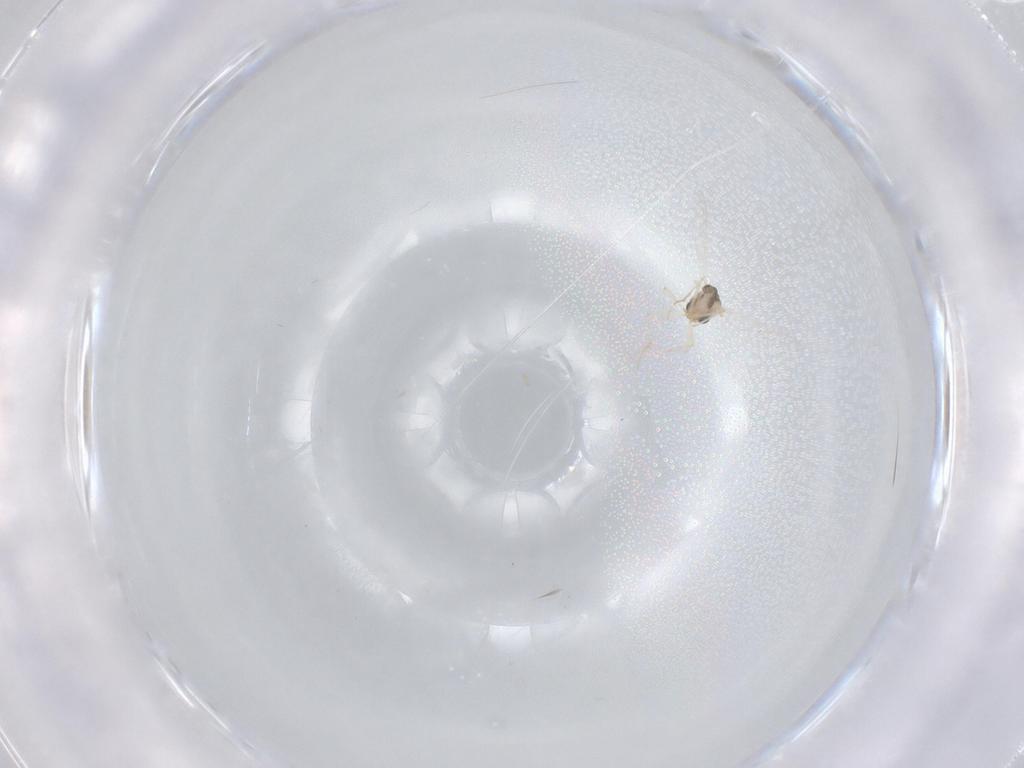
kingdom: Animalia
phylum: Arthropoda
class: Insecta
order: Diptera
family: Chironomidae
